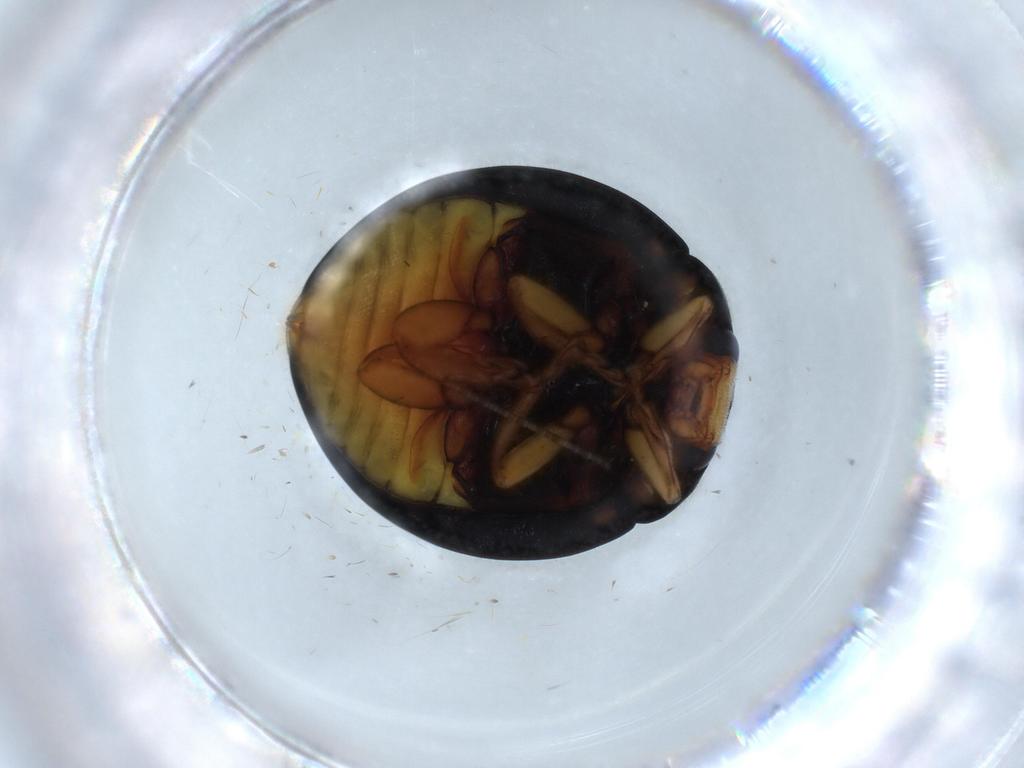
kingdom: Animalia
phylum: Arthropoda
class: Insecta
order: Coleoptera
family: Coccinellidae
